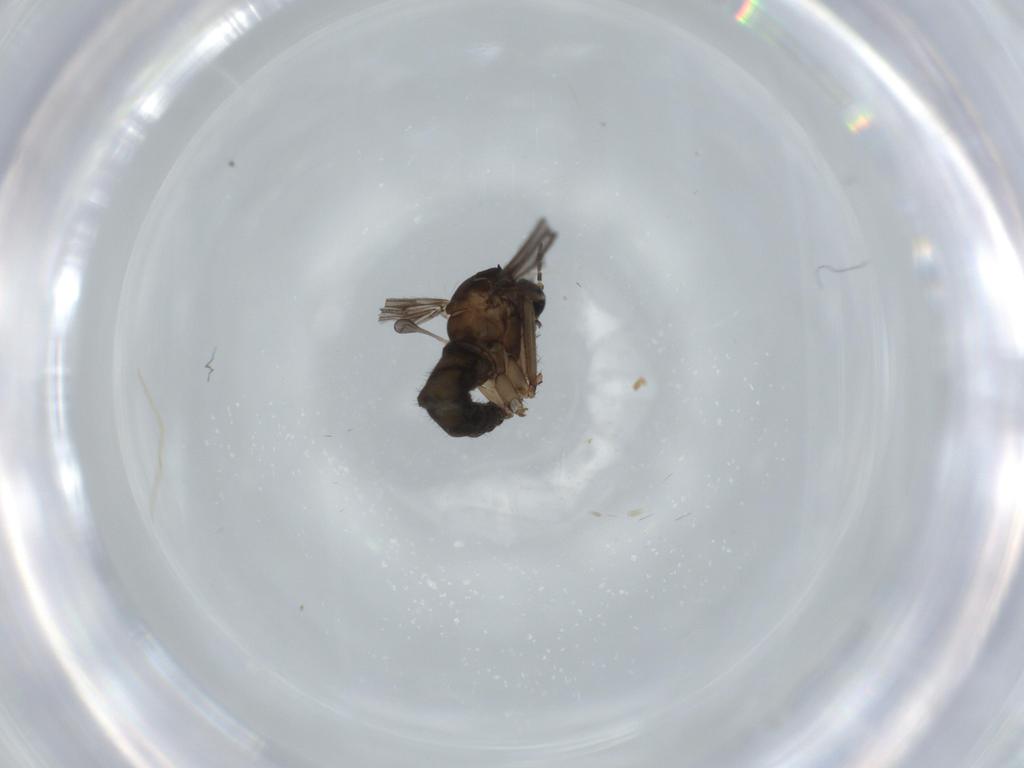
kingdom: Animalia
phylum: Arthropoda
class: Insecta
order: Diptera
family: Sciaridae
